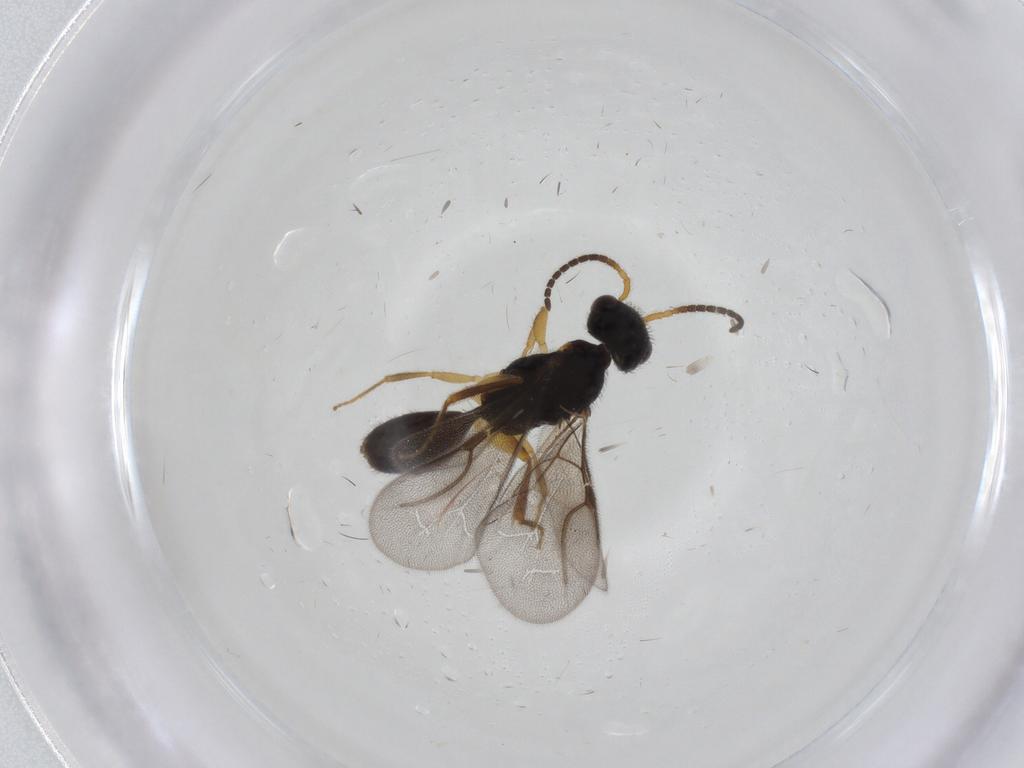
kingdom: Animalia
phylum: Arthropoda
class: Insecta
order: Hymenoptera
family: Bethylidae
